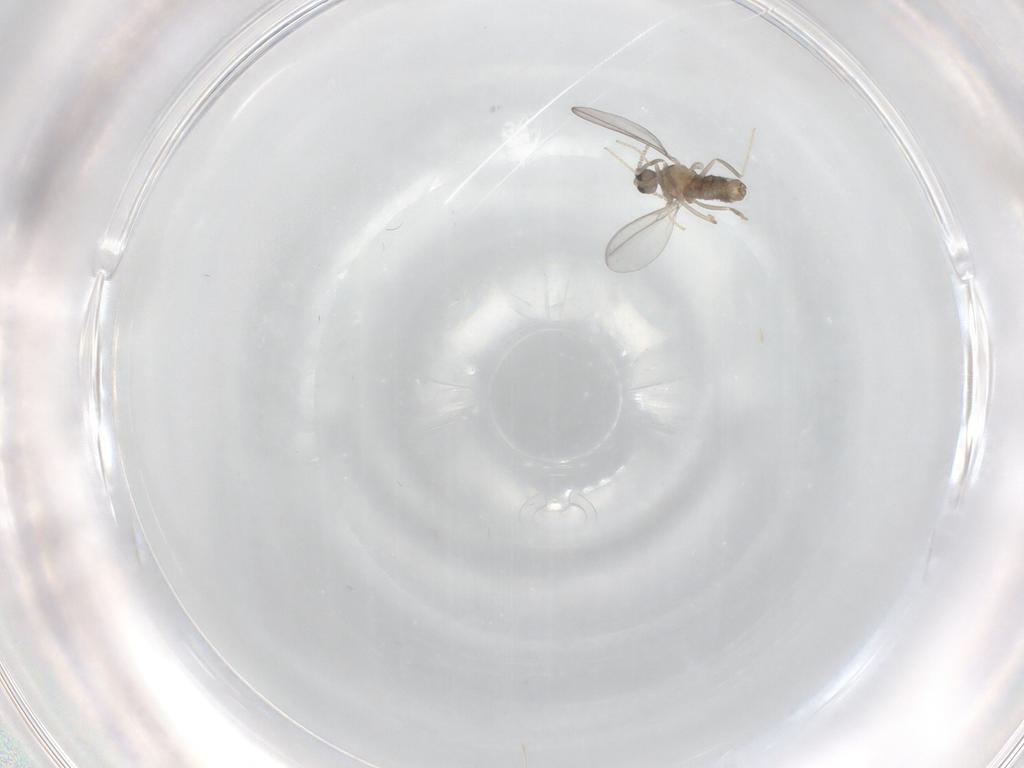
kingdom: Animalia
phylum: Arthropoda
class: Insecta
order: Diptera
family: Cecidomyiidae
